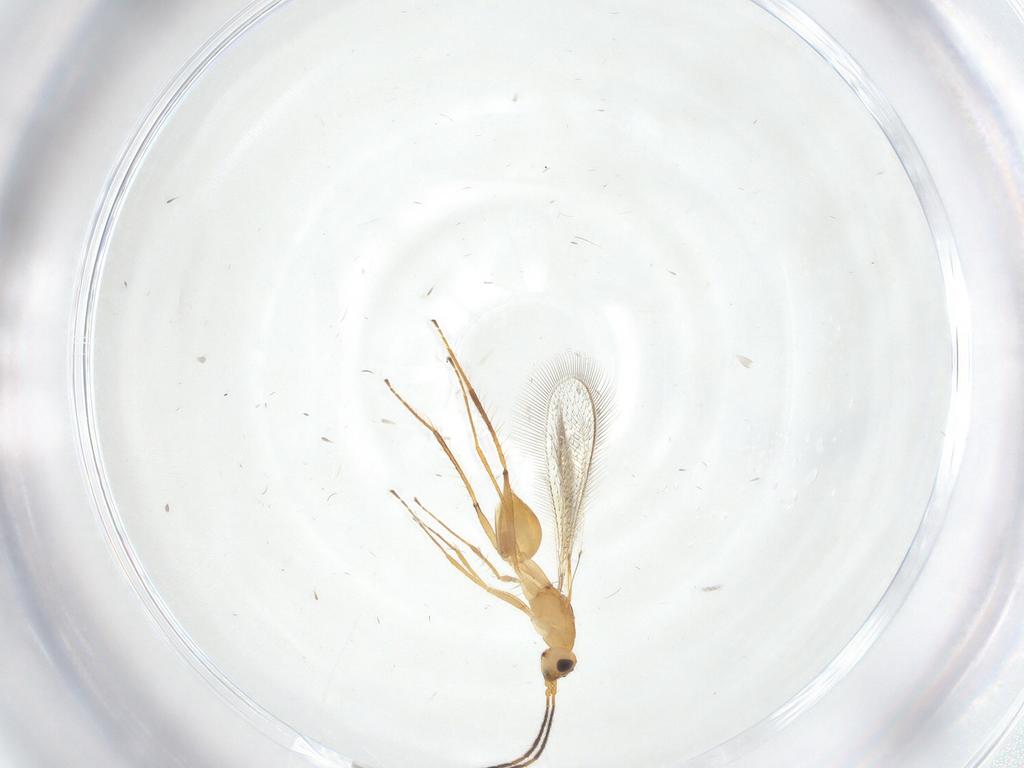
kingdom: Animalia
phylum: Arthropoda
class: Insecta
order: Hymenoptera
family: Mymaridae
